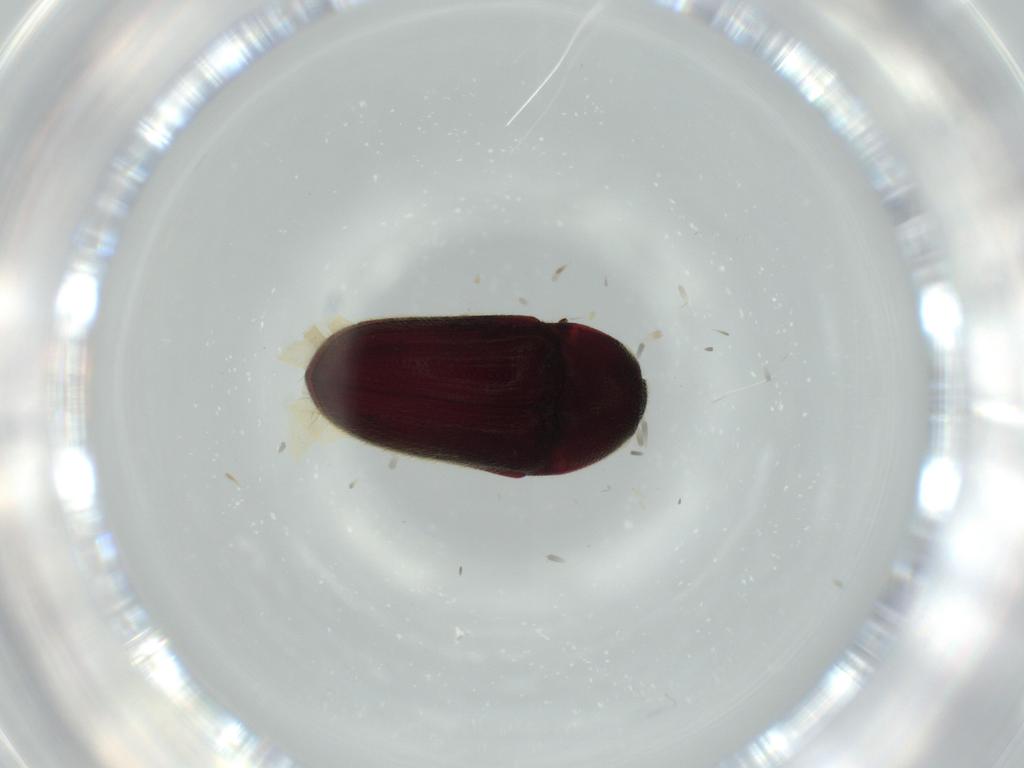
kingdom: Animalia
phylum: Arthropoda
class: Insecta
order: Coleoptera
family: Throscidae
